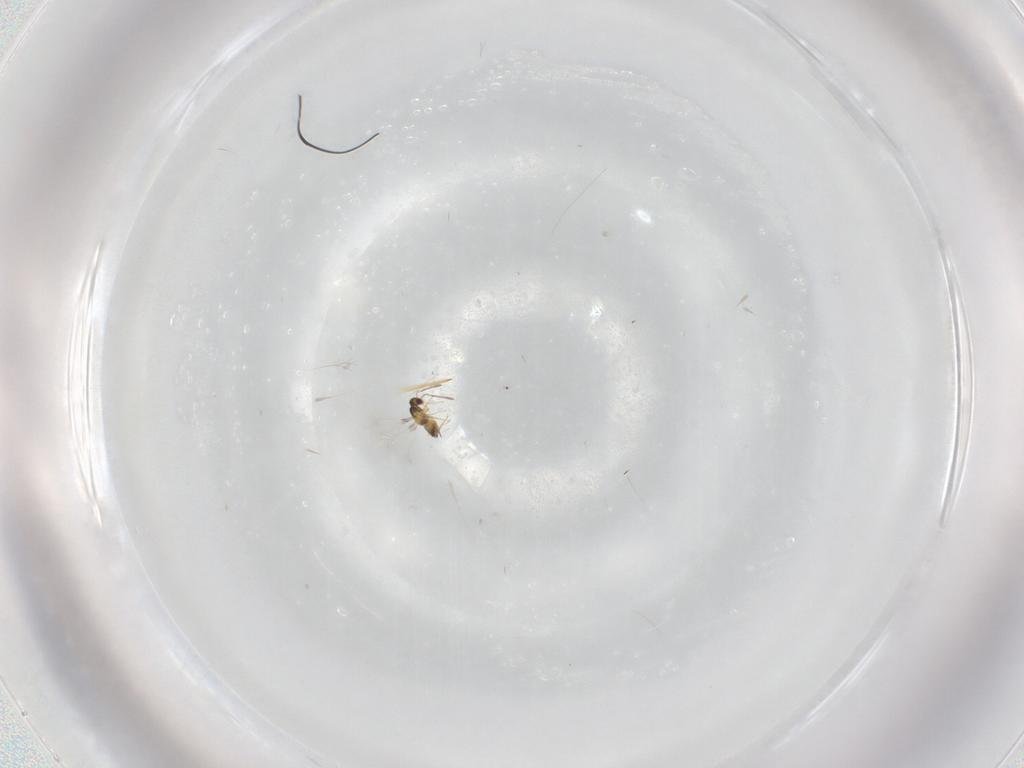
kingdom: Animalia
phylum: Arthropoda
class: Insecta
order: Hymenoptera
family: Mymaridae
